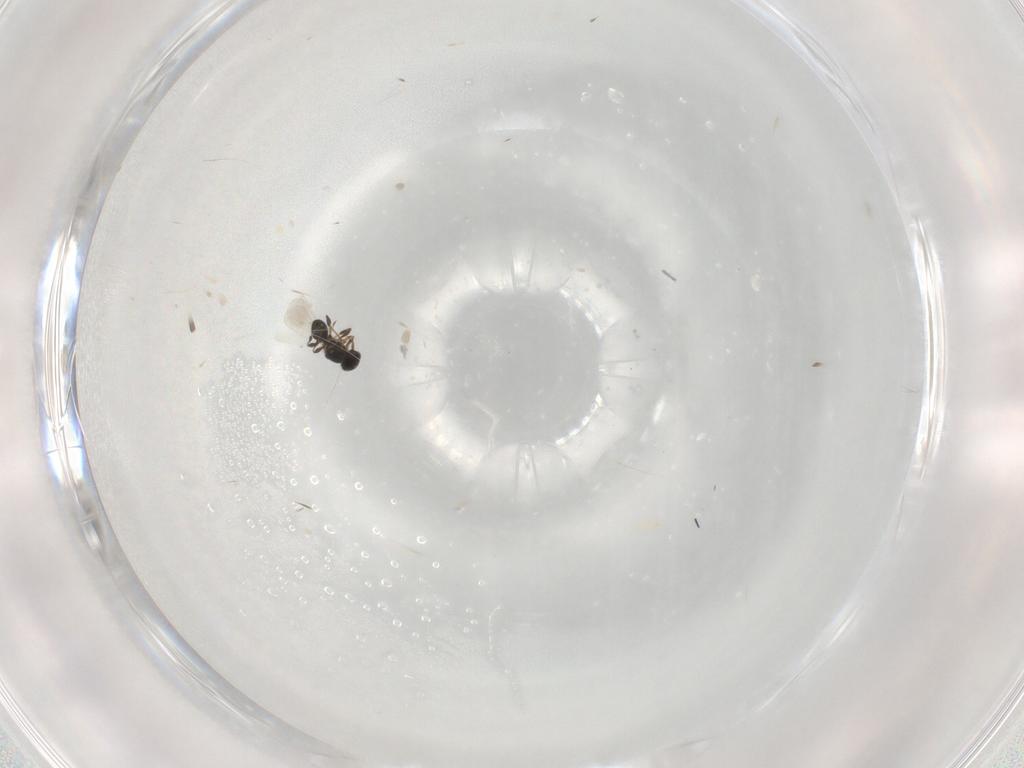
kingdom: Animalia
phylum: Arthropoda
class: Insecta
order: Hymenoptera
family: Platygastridae
